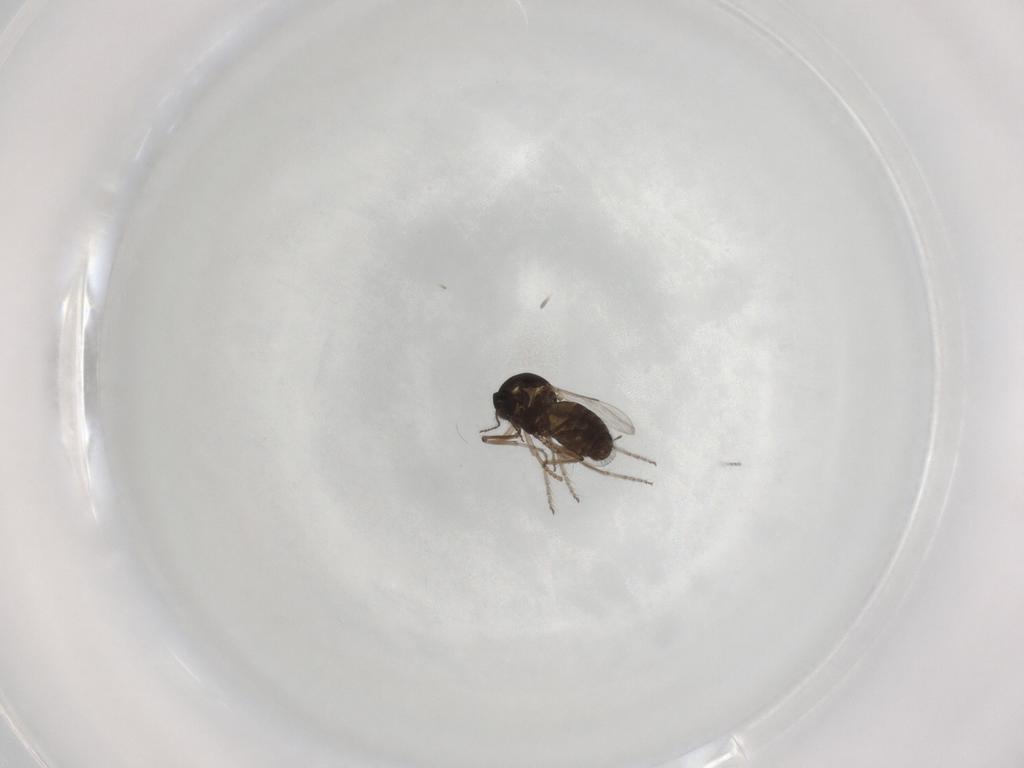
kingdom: Animalia
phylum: Arthropoda
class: Insecta
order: Diptera
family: Ceratopogonidae
